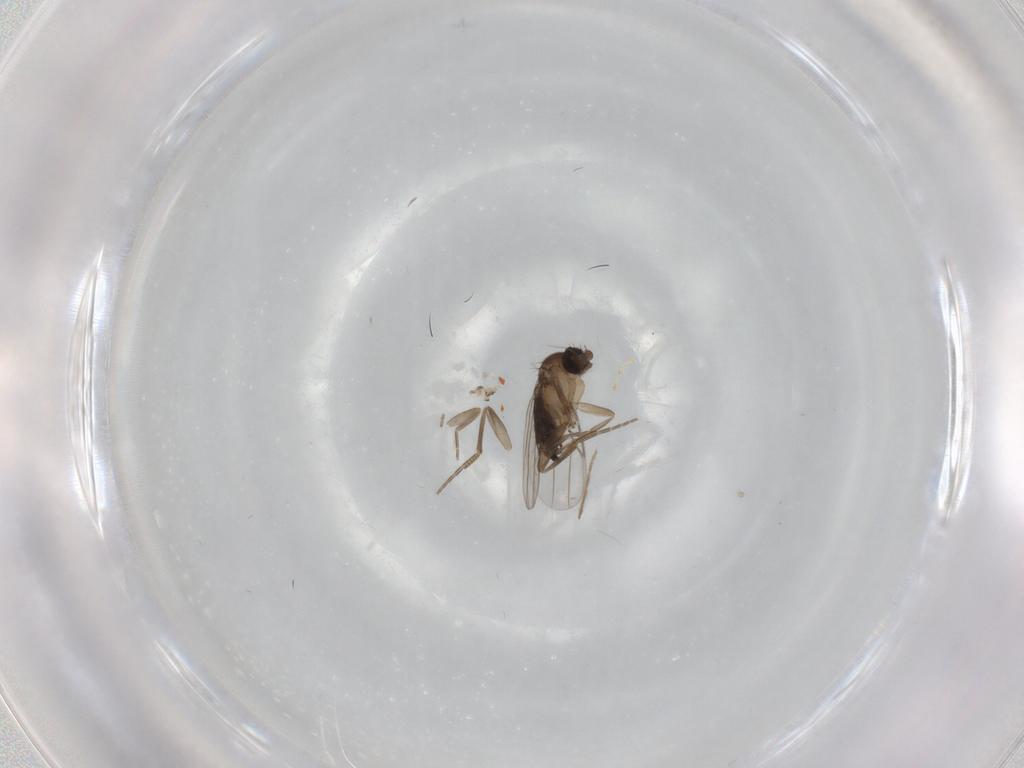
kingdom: Animalia
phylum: Arthropoda
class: Insecta
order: Diptera
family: Phoridae
